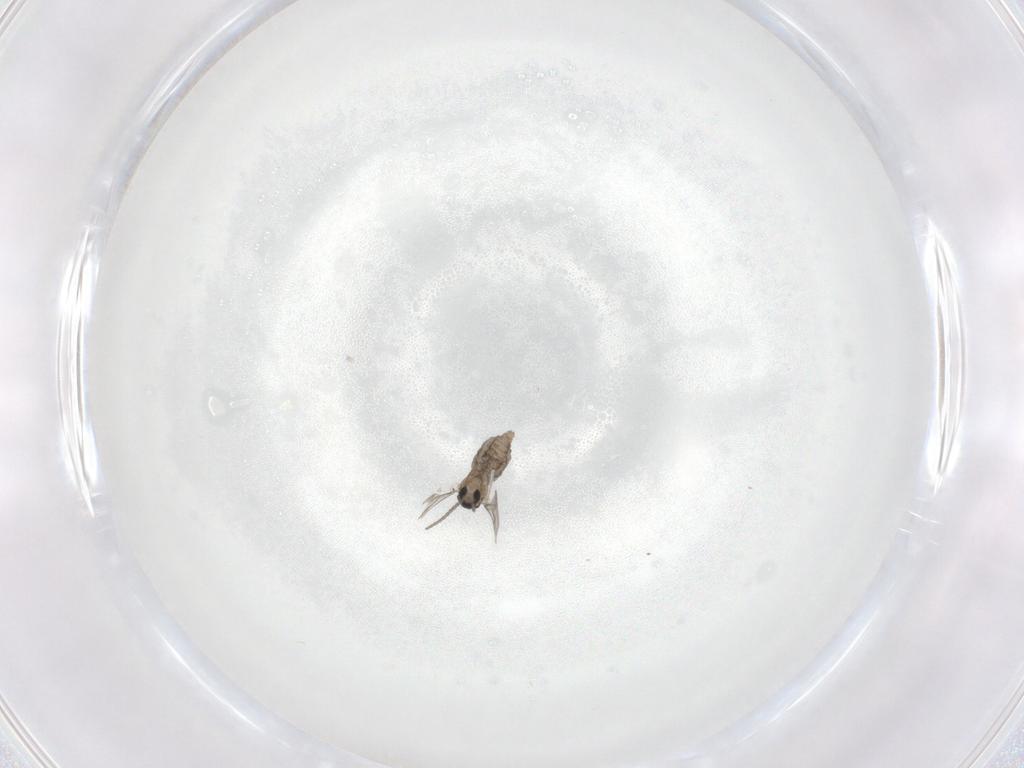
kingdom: Animalia
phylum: Arthropoda
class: Insecta
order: Diptera
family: Cecidomyiidae
